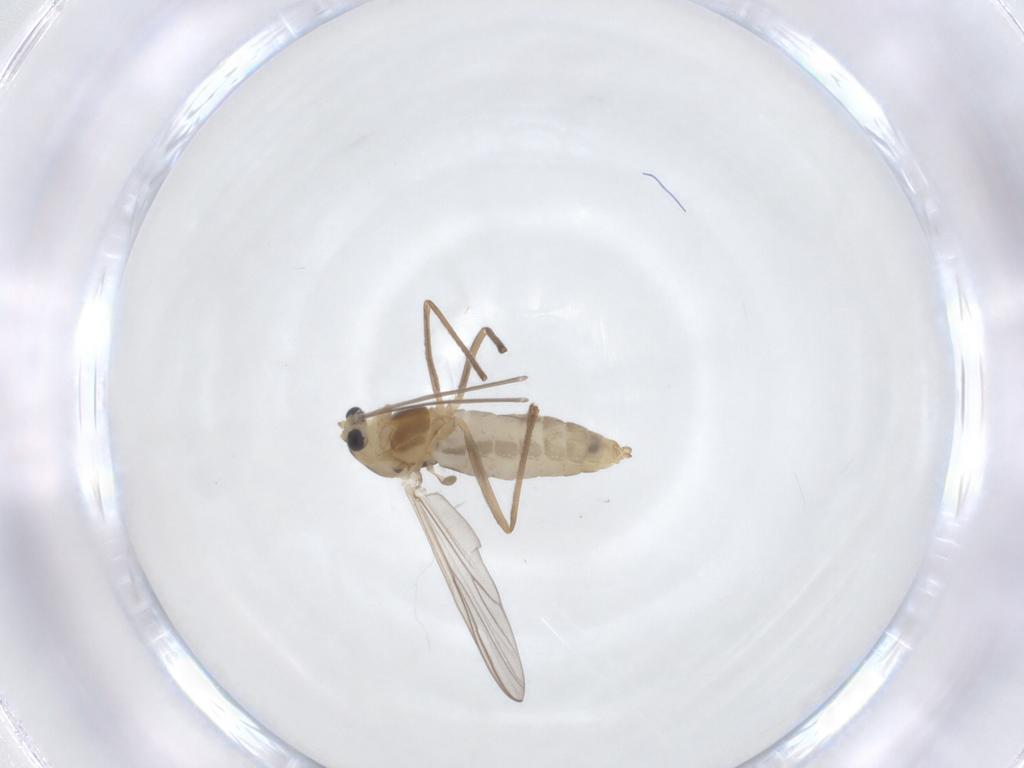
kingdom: Animalia
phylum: Arthropoda
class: Insecta
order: Diptera
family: Chironomidae
